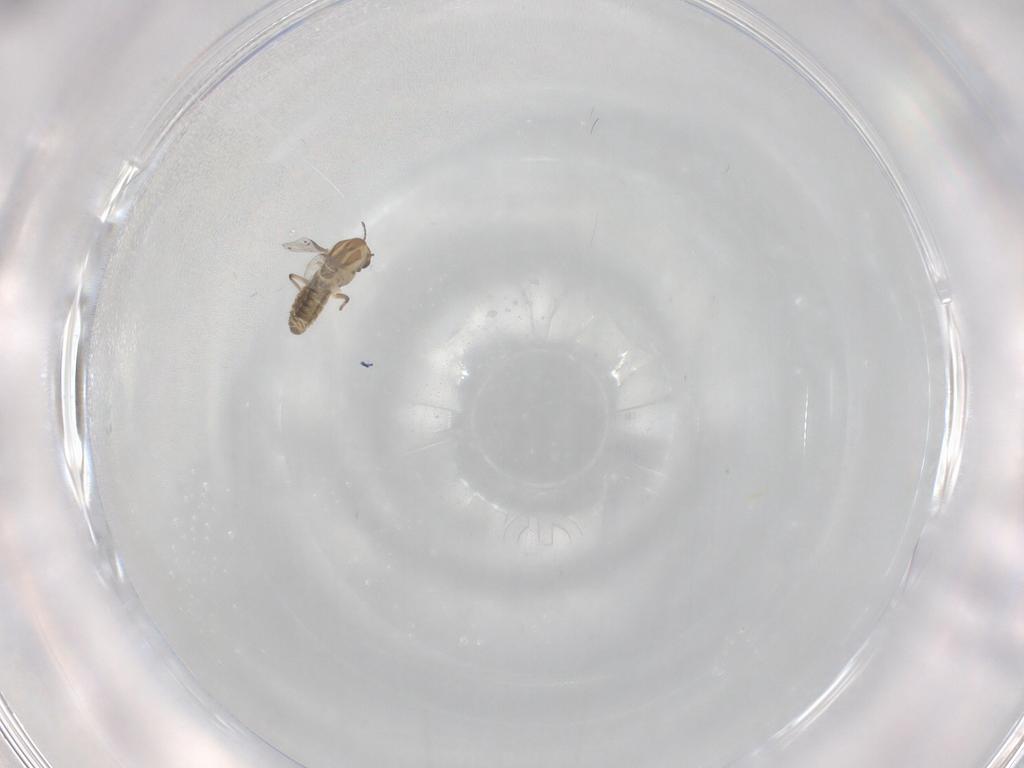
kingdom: Animalia
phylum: Arthropoda
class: Insecta
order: Diptera
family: Chironomidae
